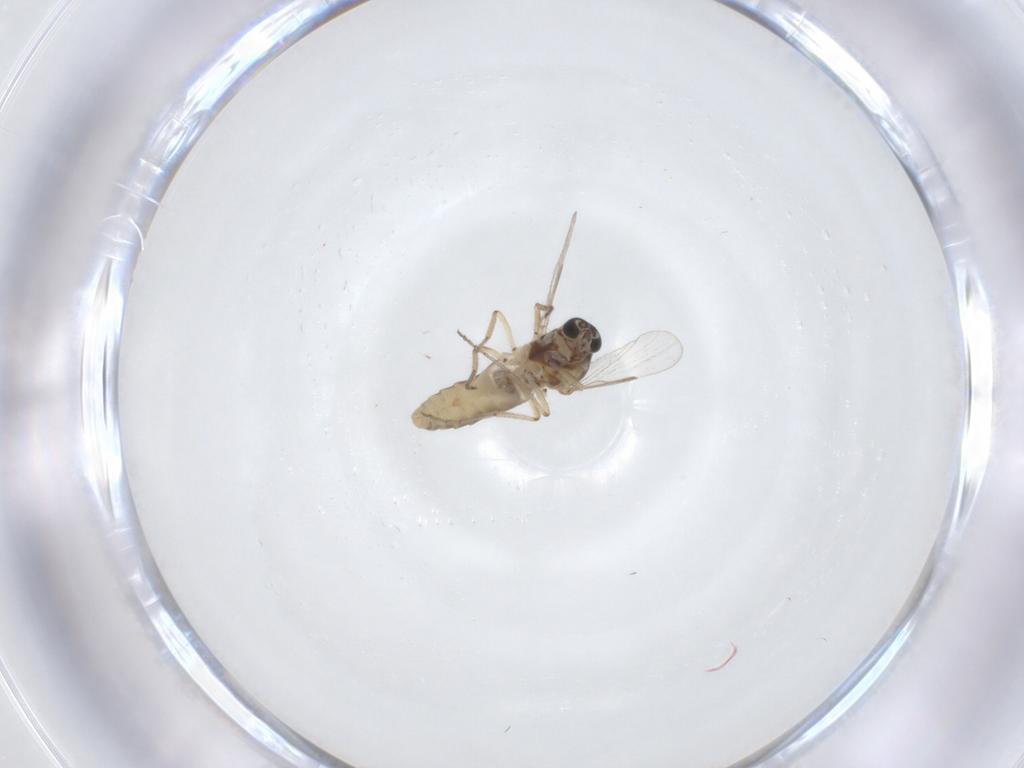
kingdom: Animalia
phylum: Arthropoda
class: Insecta
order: Diptera
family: Ceratopogonidae
